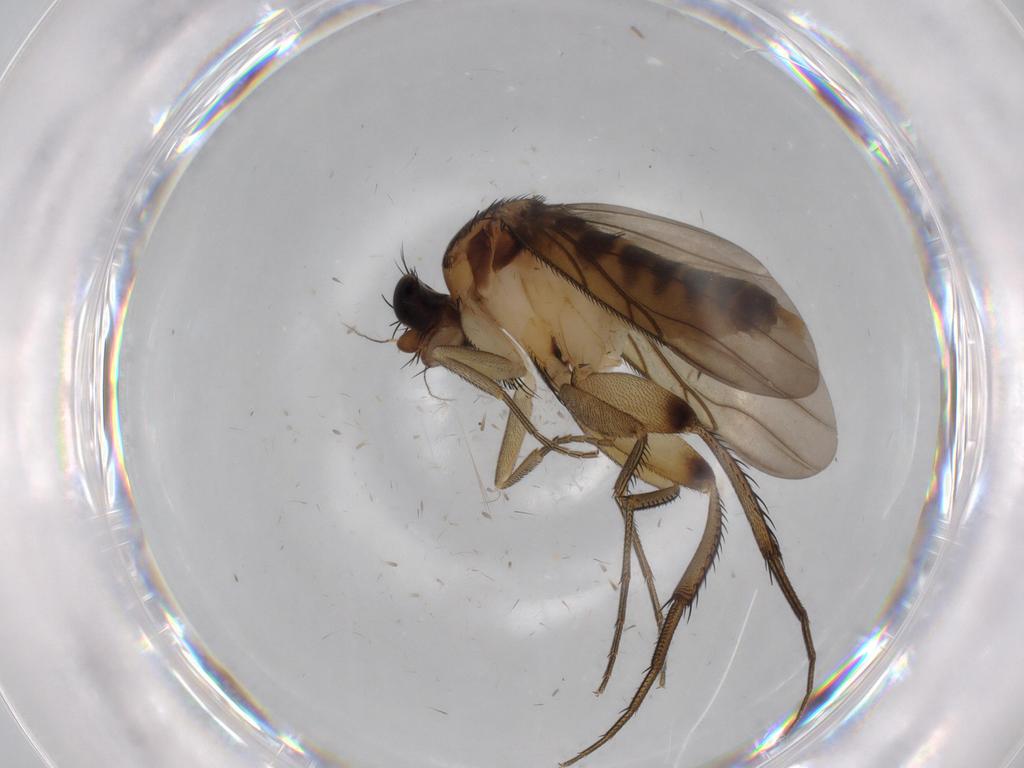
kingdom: Animalia
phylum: Arthropoda
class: Insecta
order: Diptera
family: Phoridae
